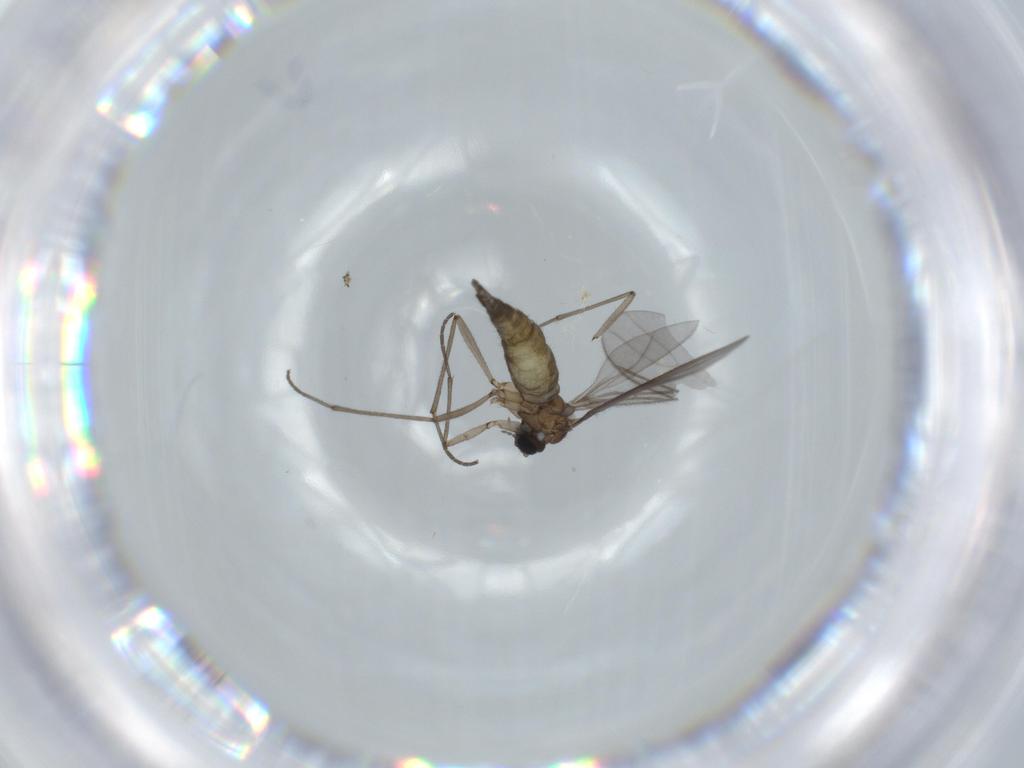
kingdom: Animalia
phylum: Arthropoda
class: Insecta
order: Diptera
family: Sciaridae
